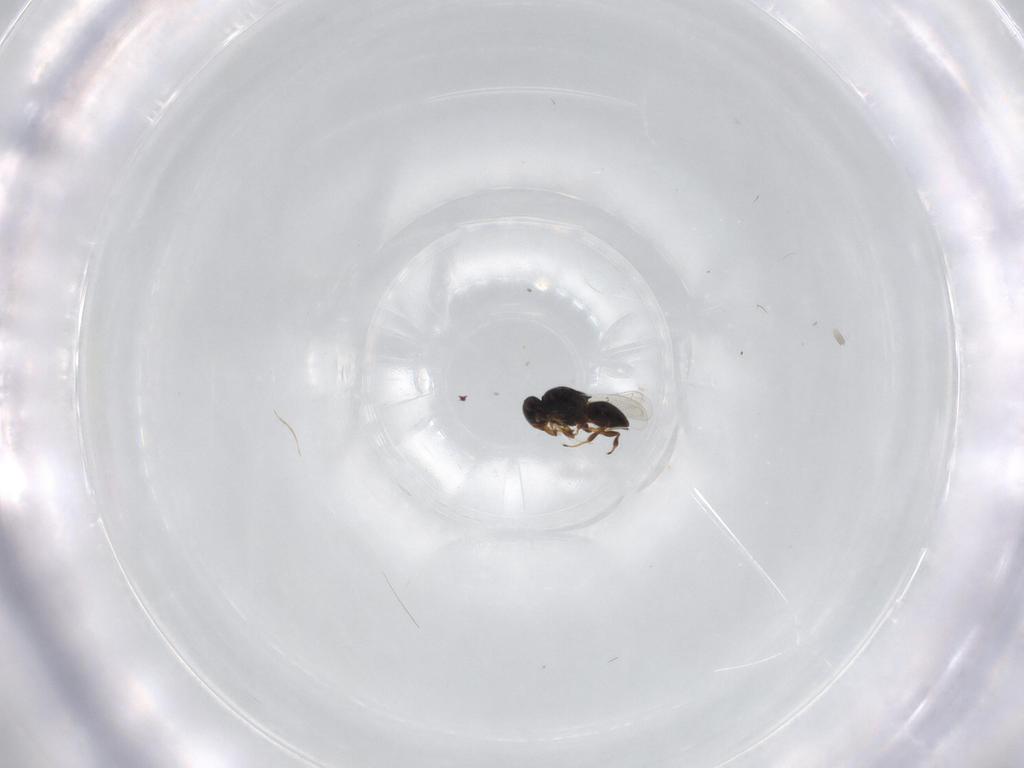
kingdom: Animalia
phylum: Arthropoda
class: Insecta
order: Hymenoptera
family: Platygastridae
